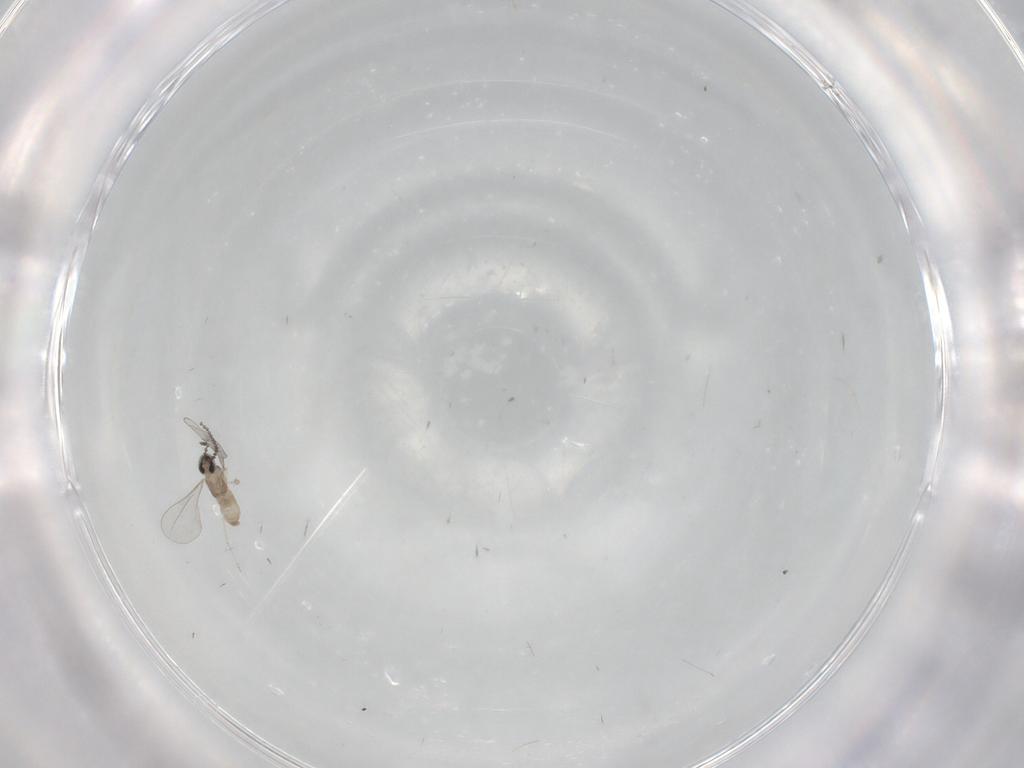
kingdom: Animalia
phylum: Arthropoda
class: Insecta
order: Diptera
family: Cecidomyiidae
